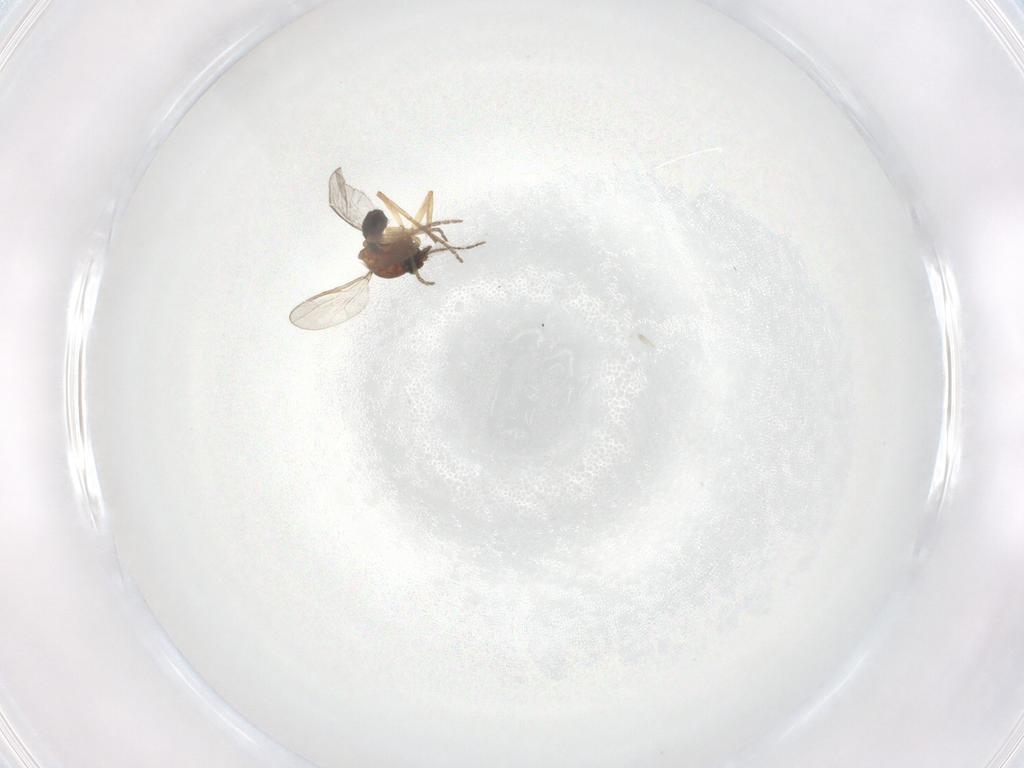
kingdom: Animalia
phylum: Arthropoda
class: Insecta
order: Diptera
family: Ceratopogonidae
